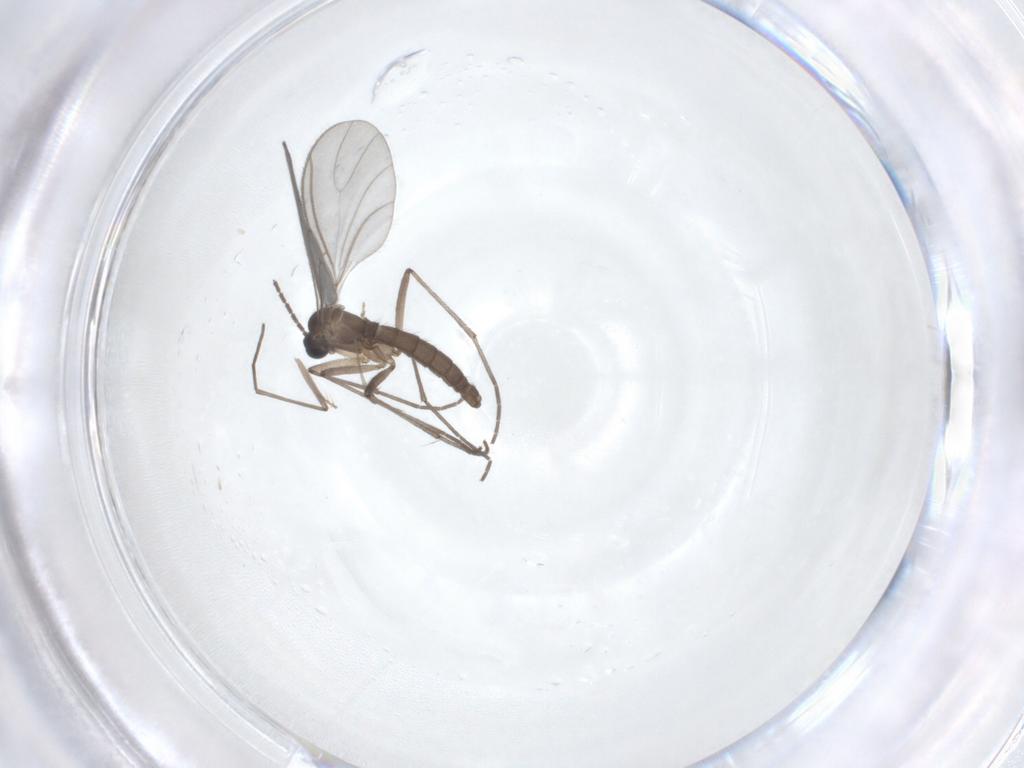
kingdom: Animalia
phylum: Arthropoda
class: Insecta
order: Diptera
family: Sciaridae
